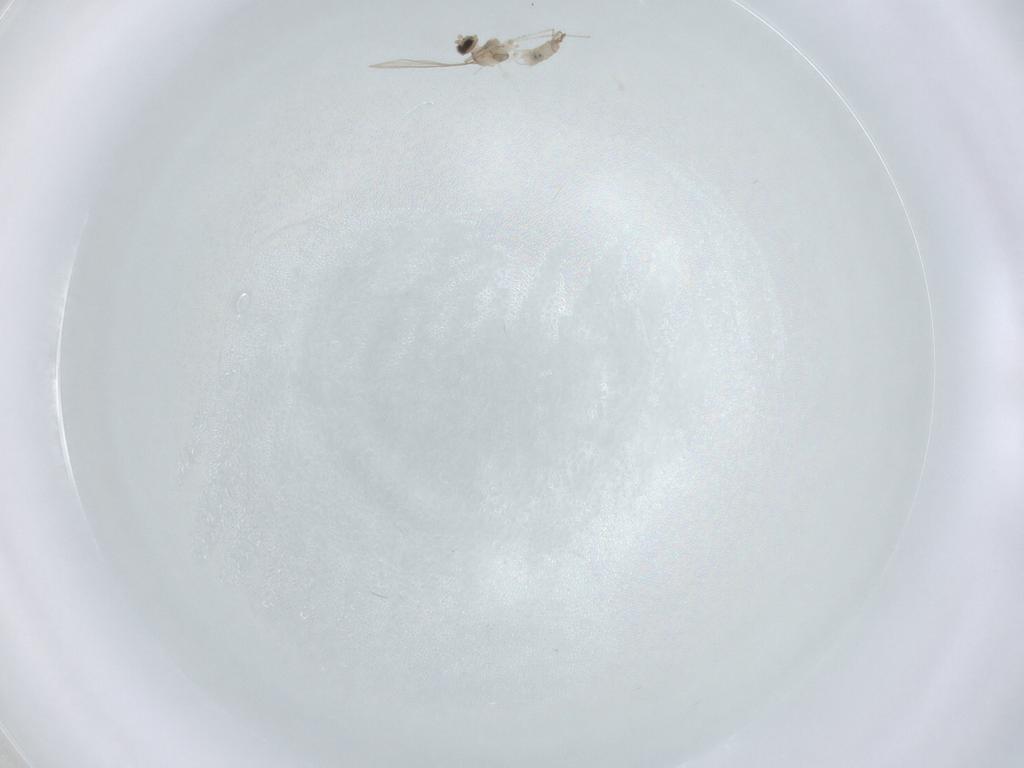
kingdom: Animalia
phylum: Arthropoda
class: Insecta
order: Diptera
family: Cecidomyiidae
